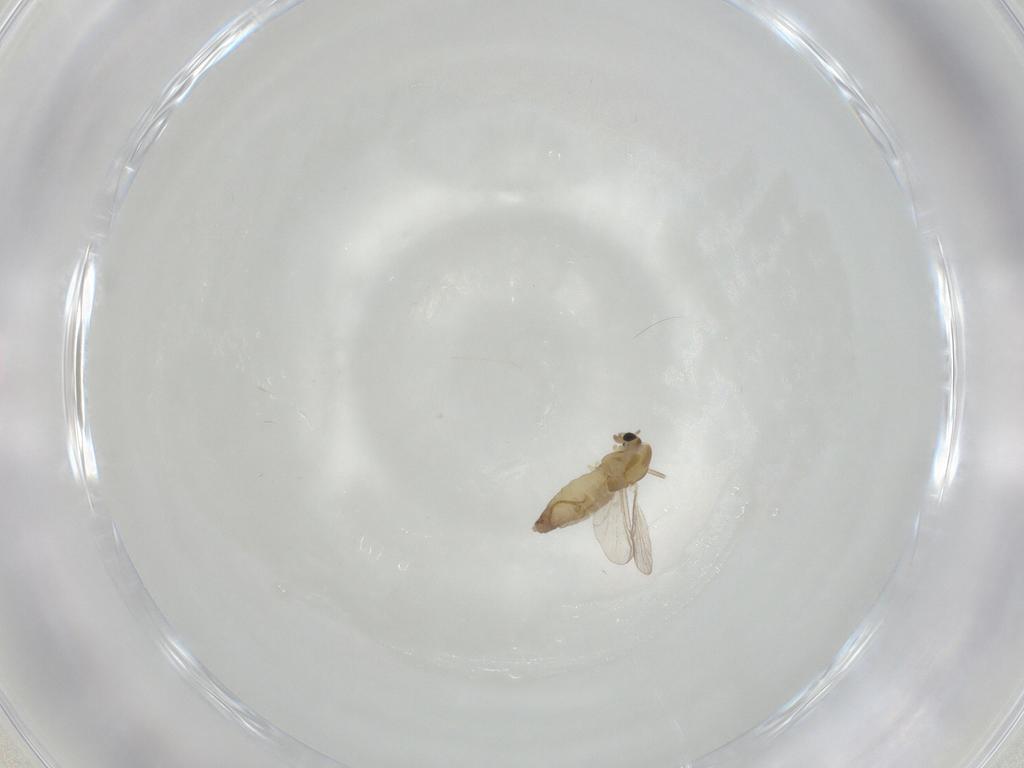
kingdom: Animalia
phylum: Arthropoda
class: Insecta
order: Diptera
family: Chironomidae
